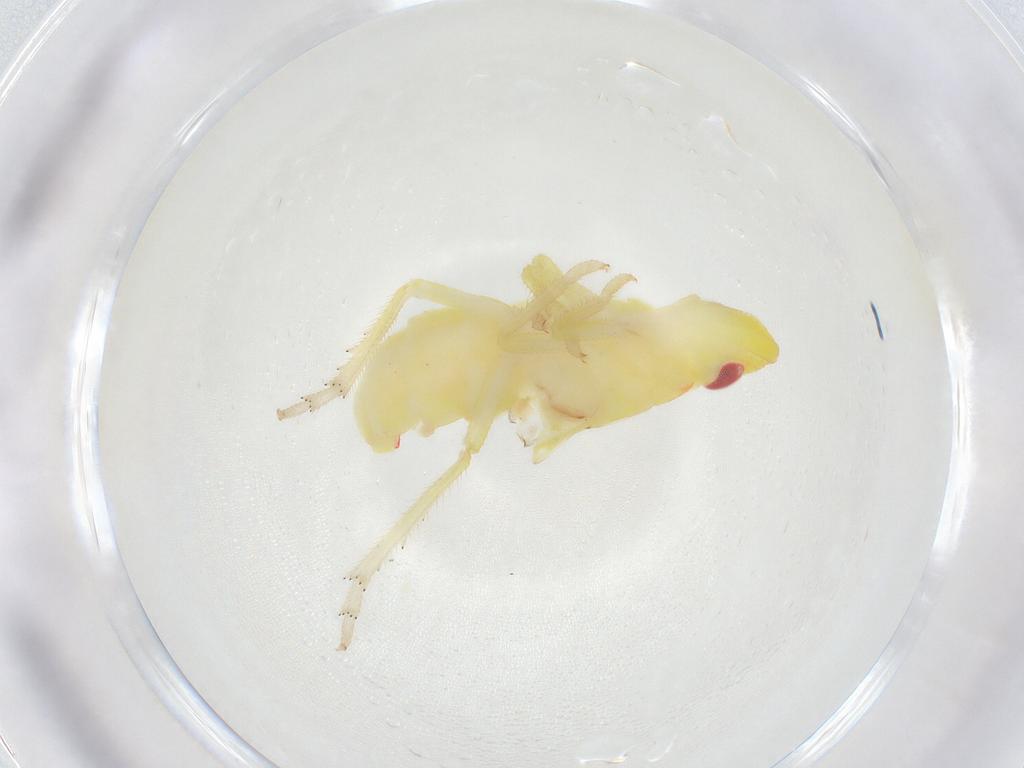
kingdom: Animalia
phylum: Arthropoda
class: Insecta
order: Hemiptera
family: Tropiduchidae
